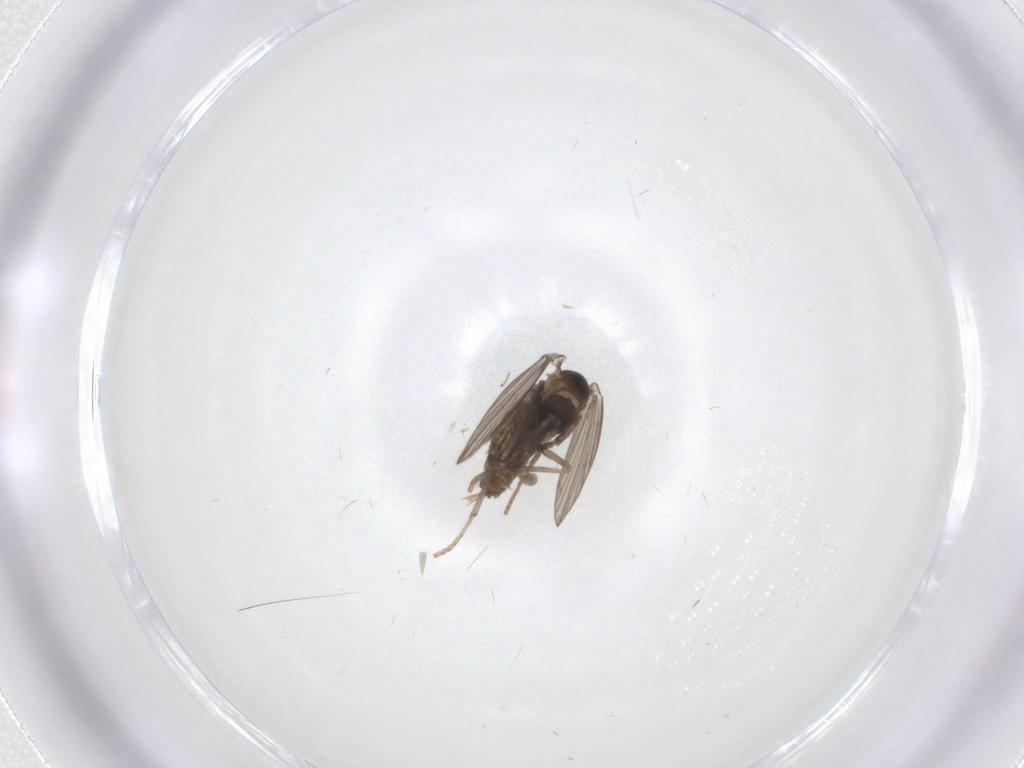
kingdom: Animalia
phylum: Arthropoda
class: Insecta
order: Diptera
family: Psychodidae
